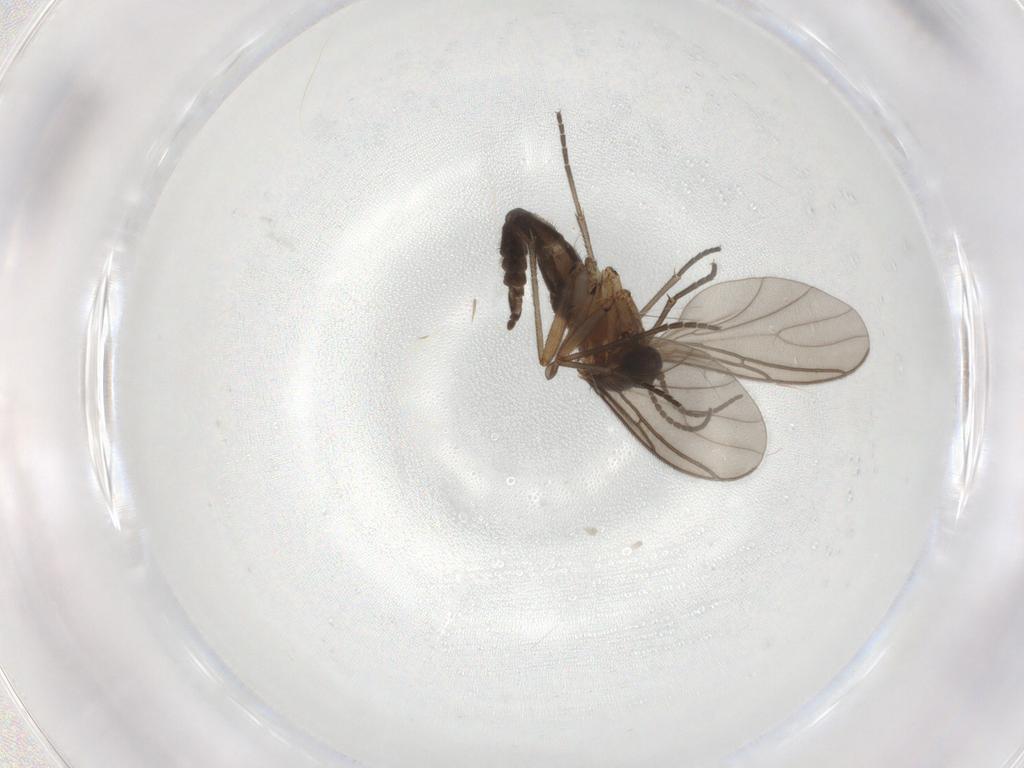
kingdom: Animalia
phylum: Arthropoda
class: Insecta
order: Diptera
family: Sciaridae
